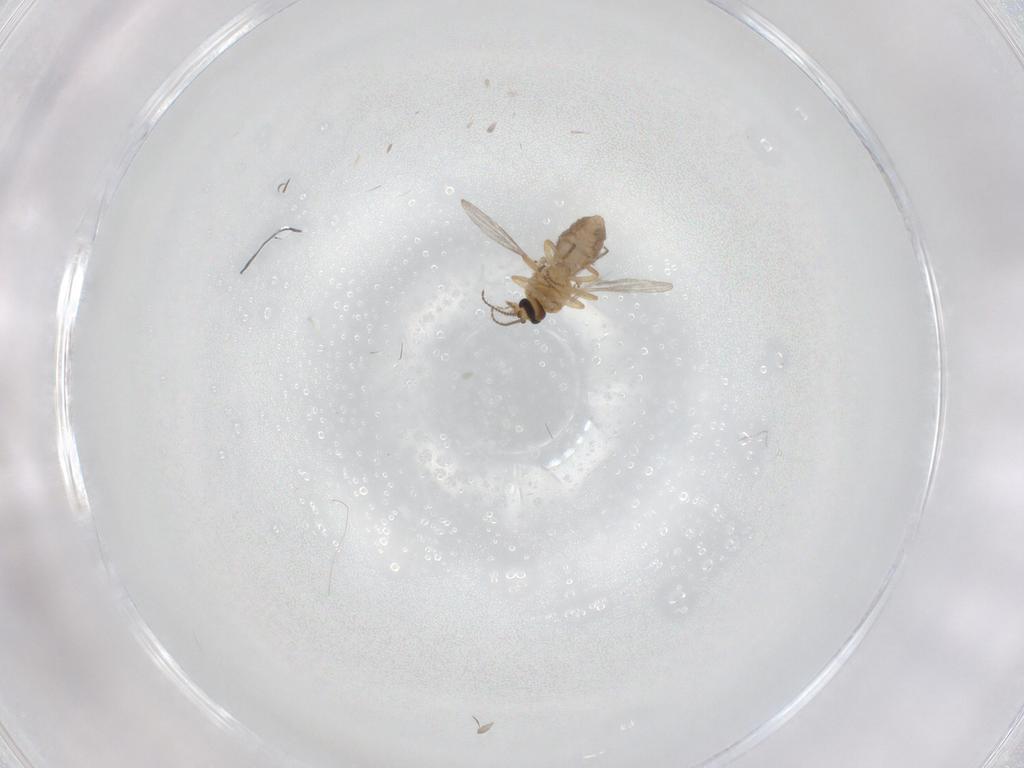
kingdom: Animalia
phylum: Arthropoda
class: Insecta
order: Diptera
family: Ceratopogonidae
